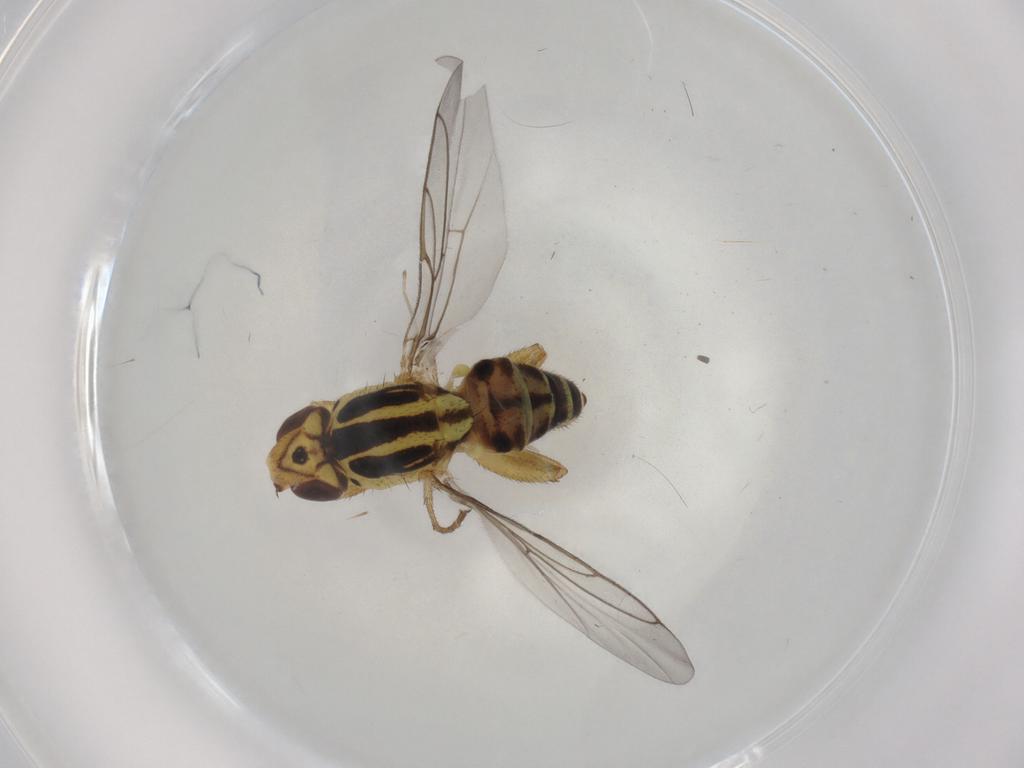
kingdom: Animalia
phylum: Arthropoda
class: Insecta
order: Diptera
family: Chloropidae
